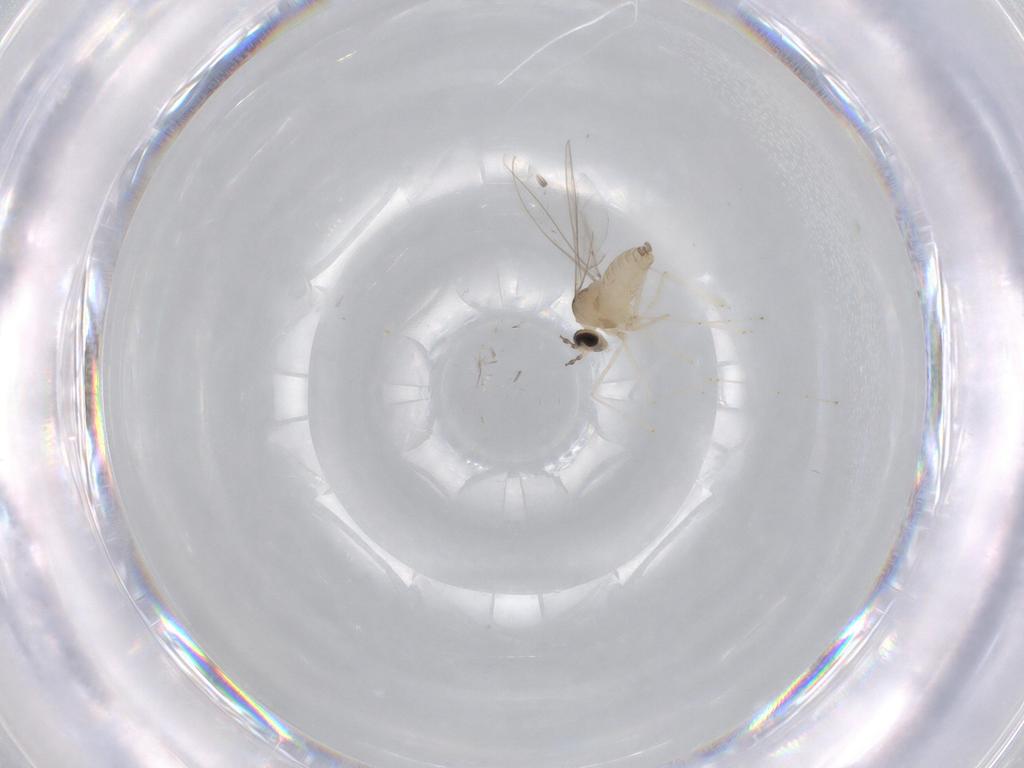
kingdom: Animalia
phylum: Arthropoda
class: Insecta
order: Diptera
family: Cecidomyiidae
